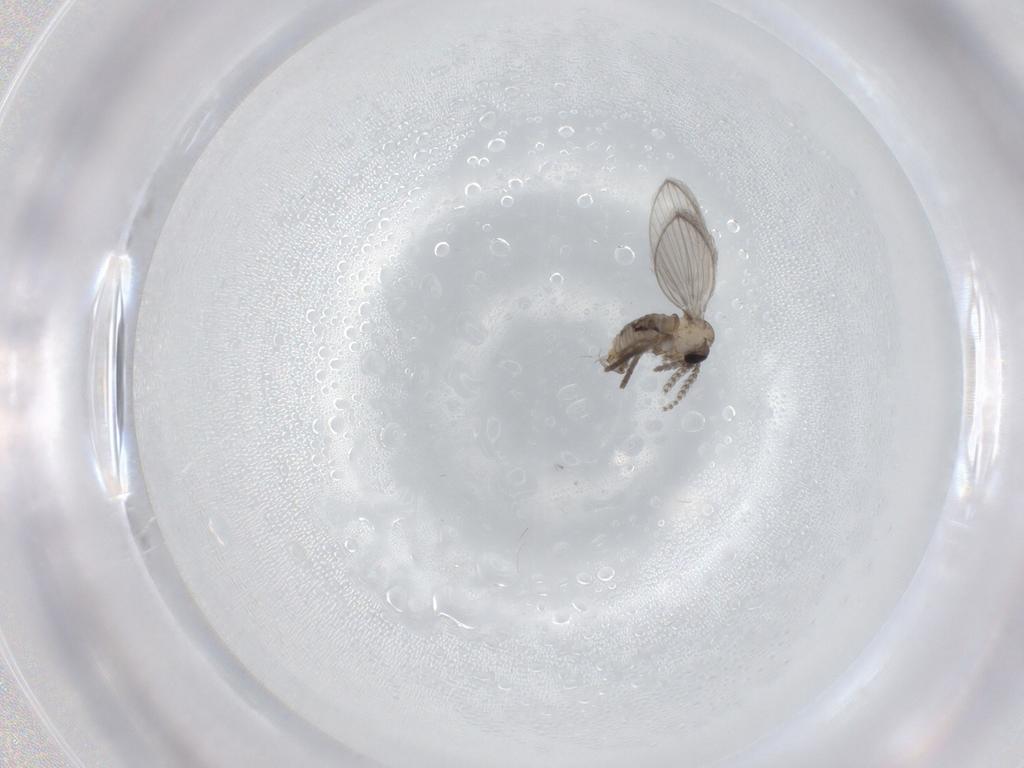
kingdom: Animalia
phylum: Arthropoda
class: Insecta
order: Diptera
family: Psychodidae
